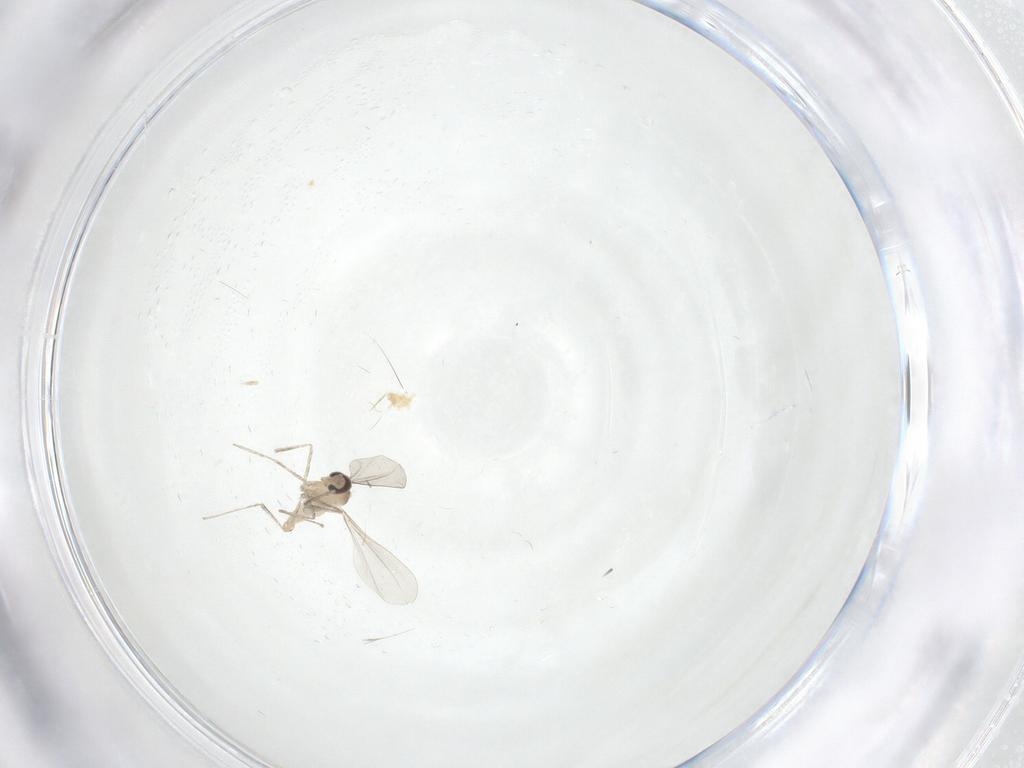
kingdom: Animalia
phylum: Arthropoda
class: Insecta
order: Diptera
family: Cecidomyiidae
